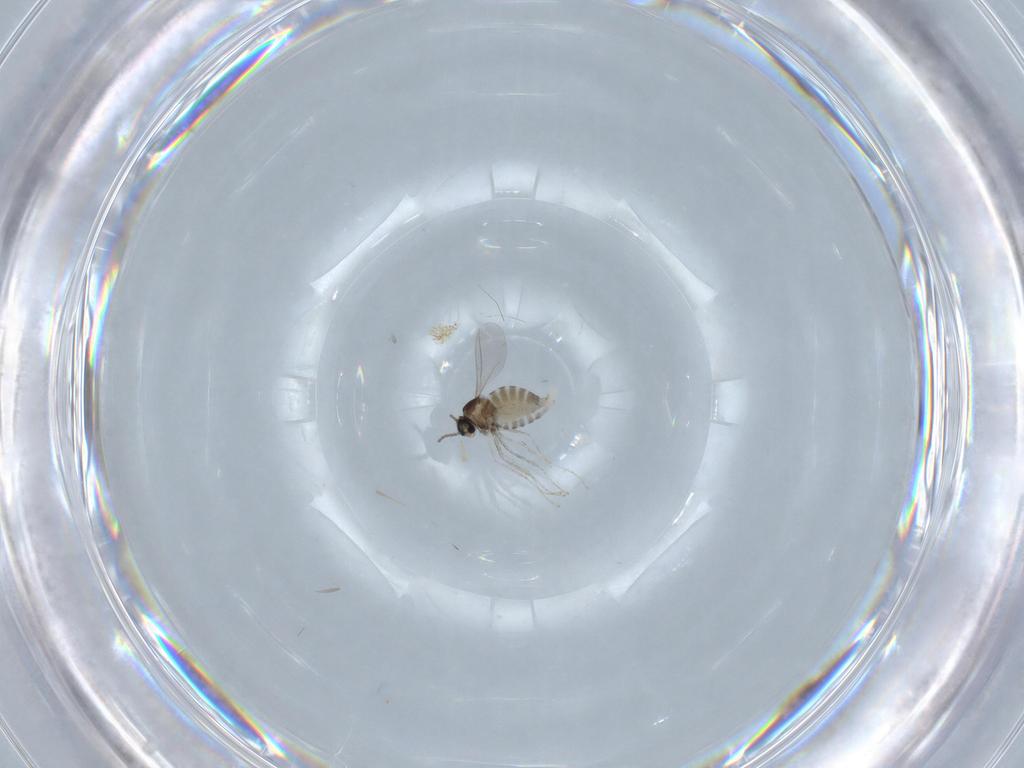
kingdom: Animalia
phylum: Arthropoda
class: Insecta
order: Diptera
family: Cecidomyiidae
